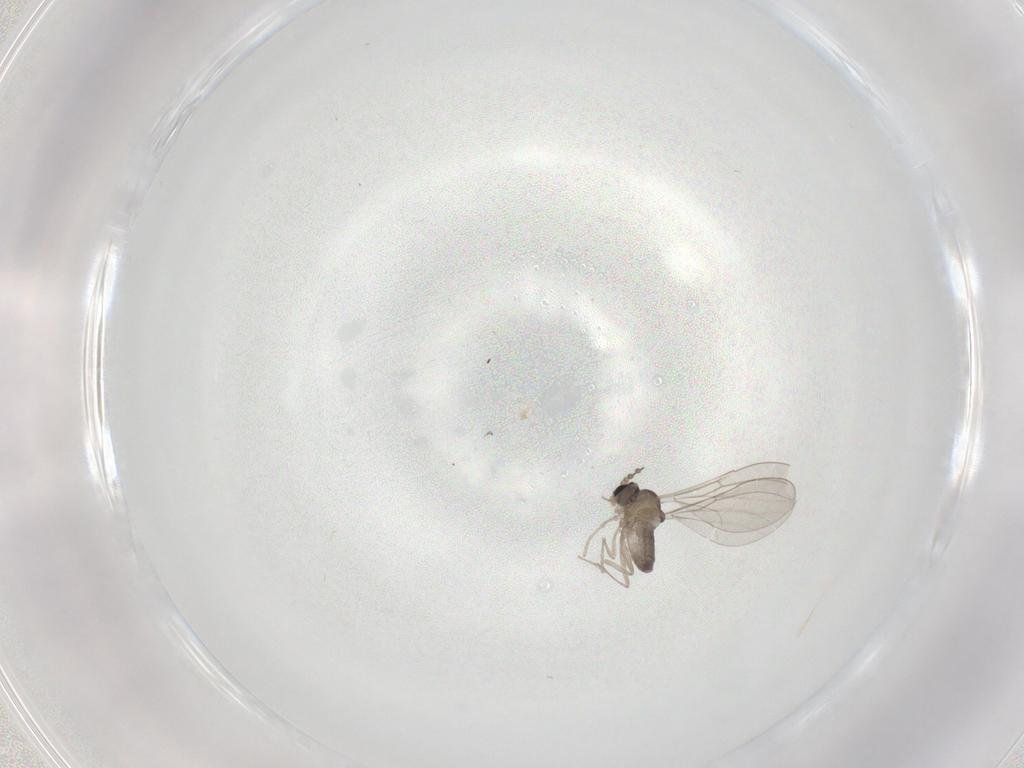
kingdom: Animalia
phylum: Arthropoda
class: Insecta
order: Diptera
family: Cecidomyiidae
